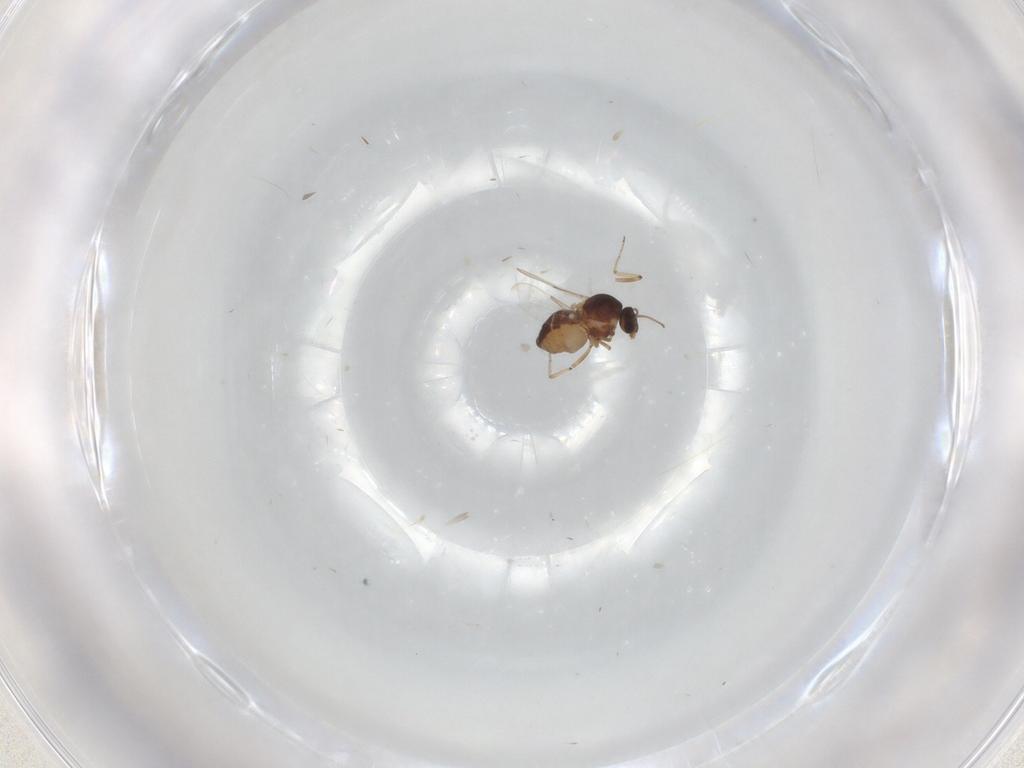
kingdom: Animalia
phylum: Arthropoda
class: Insecta
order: Diptera
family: Ceratopogonidae
